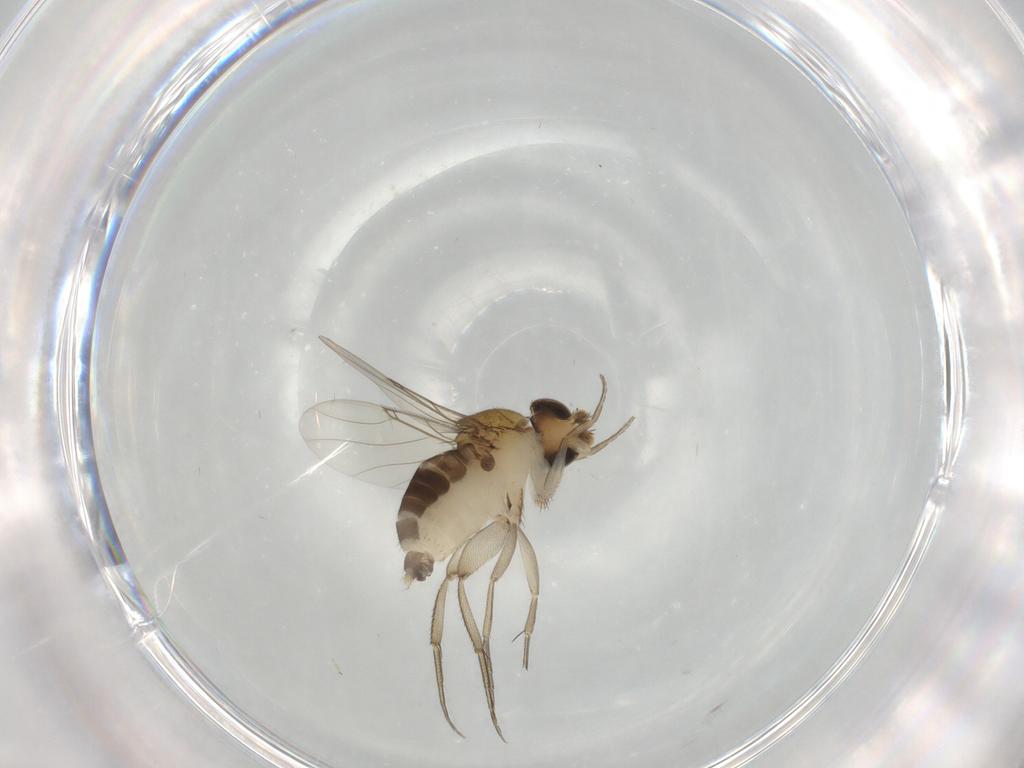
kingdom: Animalia
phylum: Arthropoda
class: Insecta
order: Diptera
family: Phoridae
